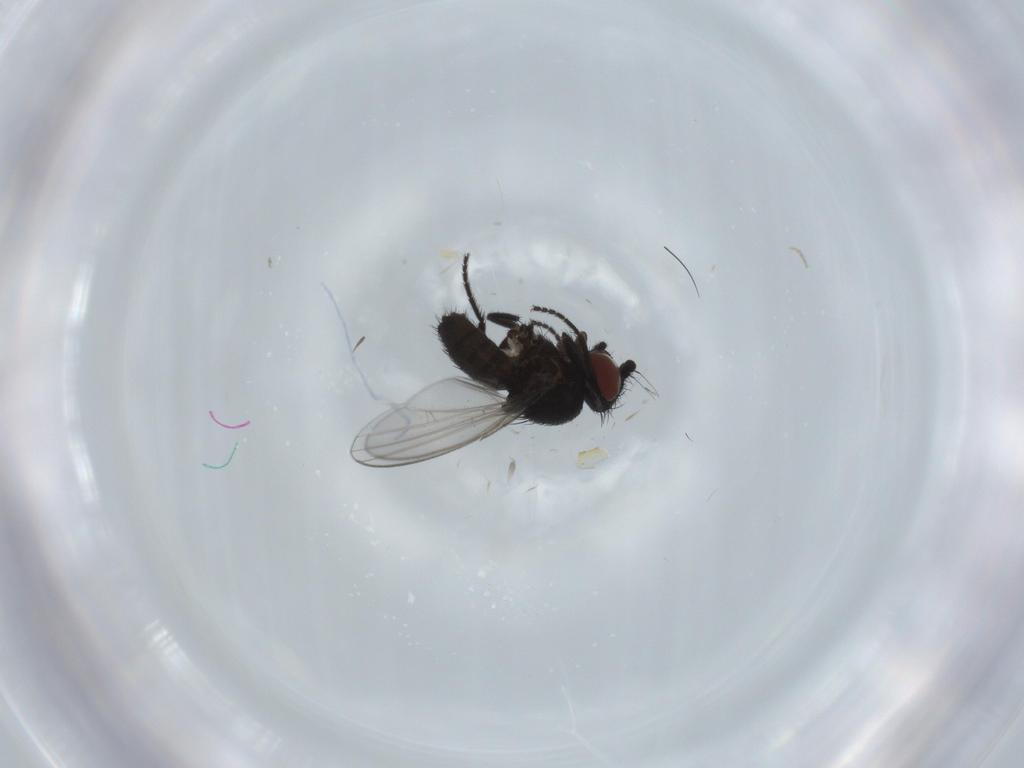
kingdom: Animalia
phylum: Arthropoda
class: Insecta
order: Diptera
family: Milichiidae
